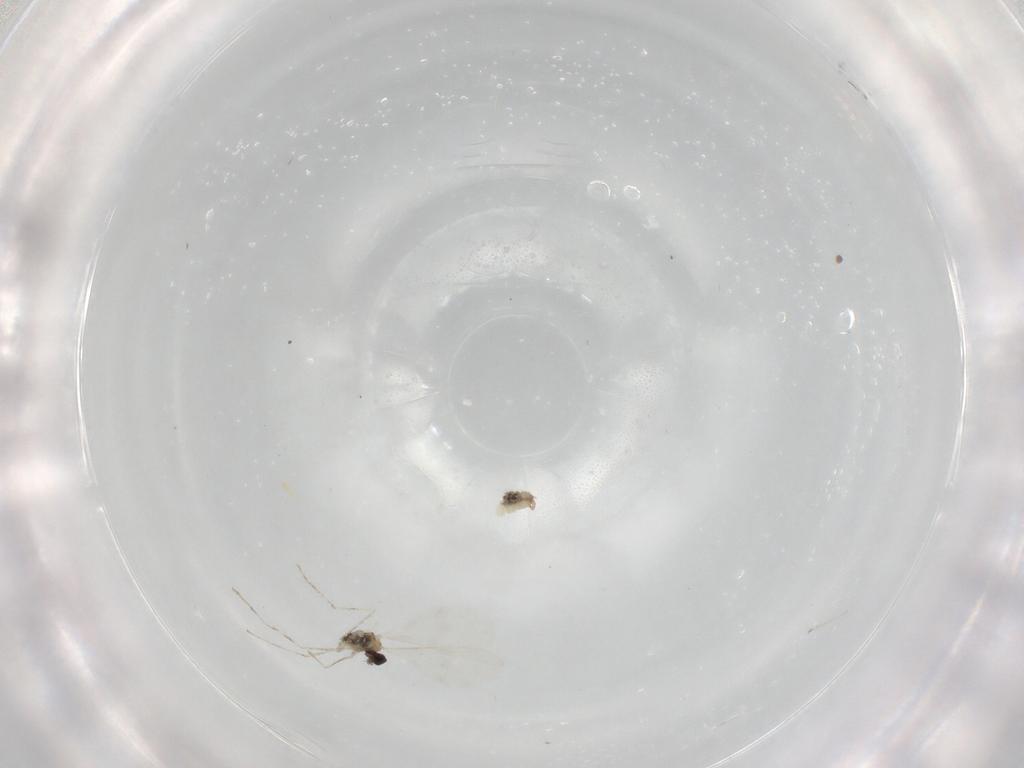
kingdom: Animalia
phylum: Arthropoda
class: Insecta
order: Diptera
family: Cecidomyiidae
